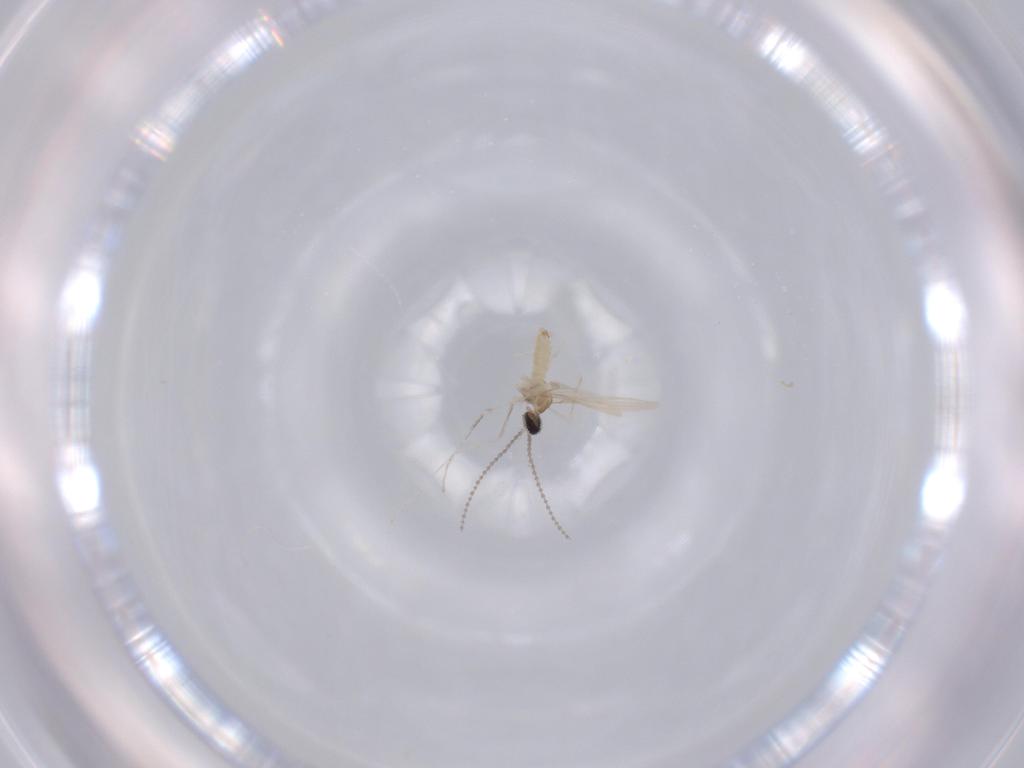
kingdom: Animalia
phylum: Arthropoda
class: Insecta
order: Diptera
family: Cecidomyiidae
